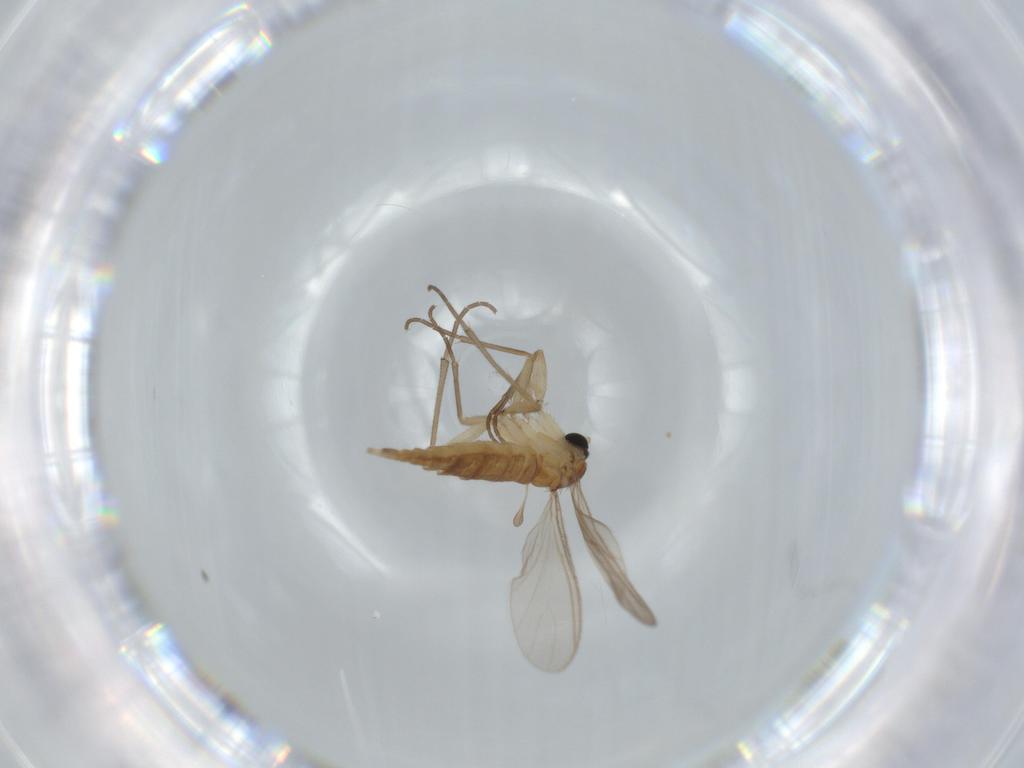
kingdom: Animalia
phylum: Arthropoda
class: Insecta
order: Diptera
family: Sciaridae
